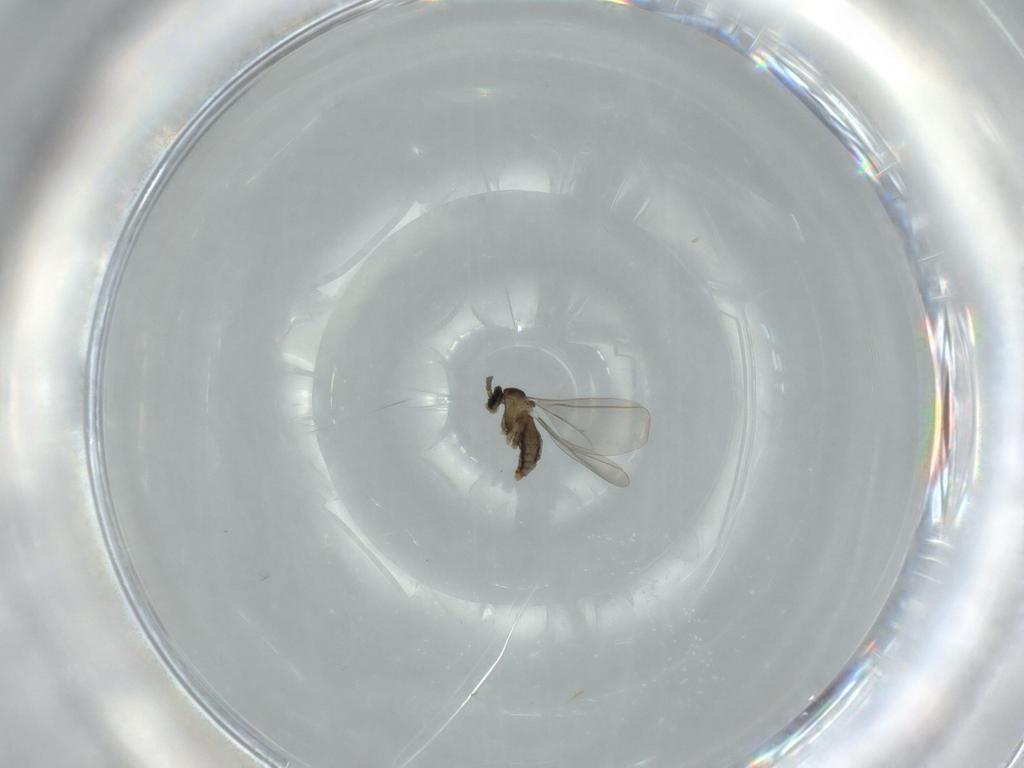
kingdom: Animalia
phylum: Arthropoda
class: Insecta
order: Diptera
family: Cecidomyiidae
